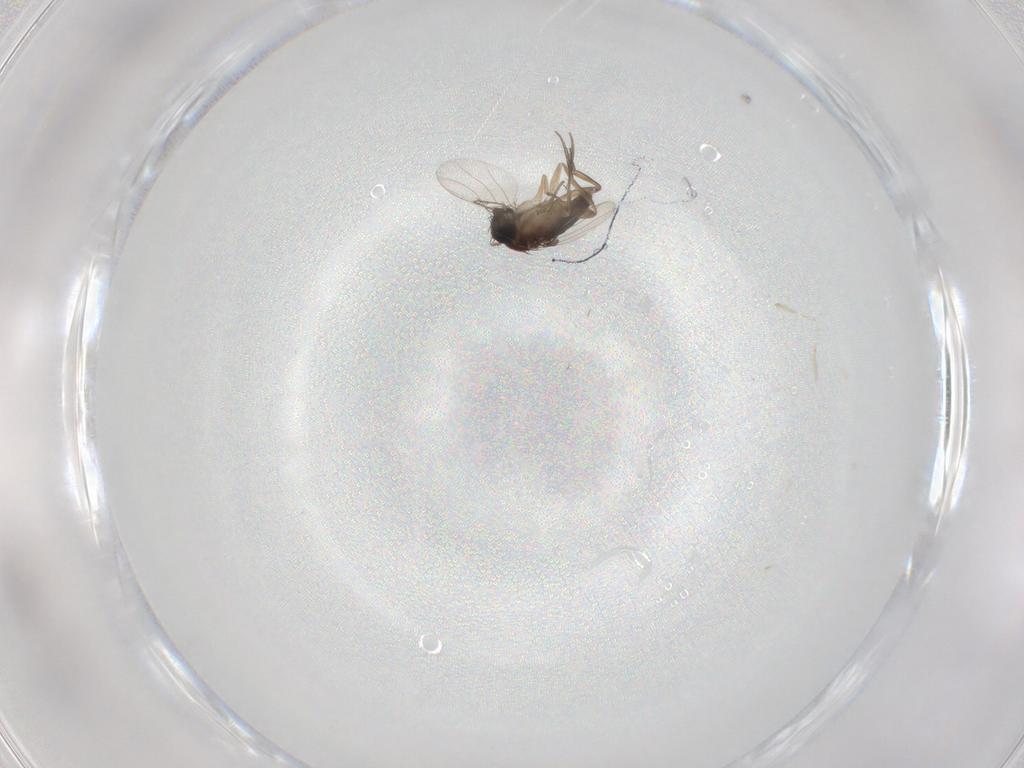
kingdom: Animalia
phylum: Arthropoda
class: Insecta
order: Diptera
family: Phoridae
